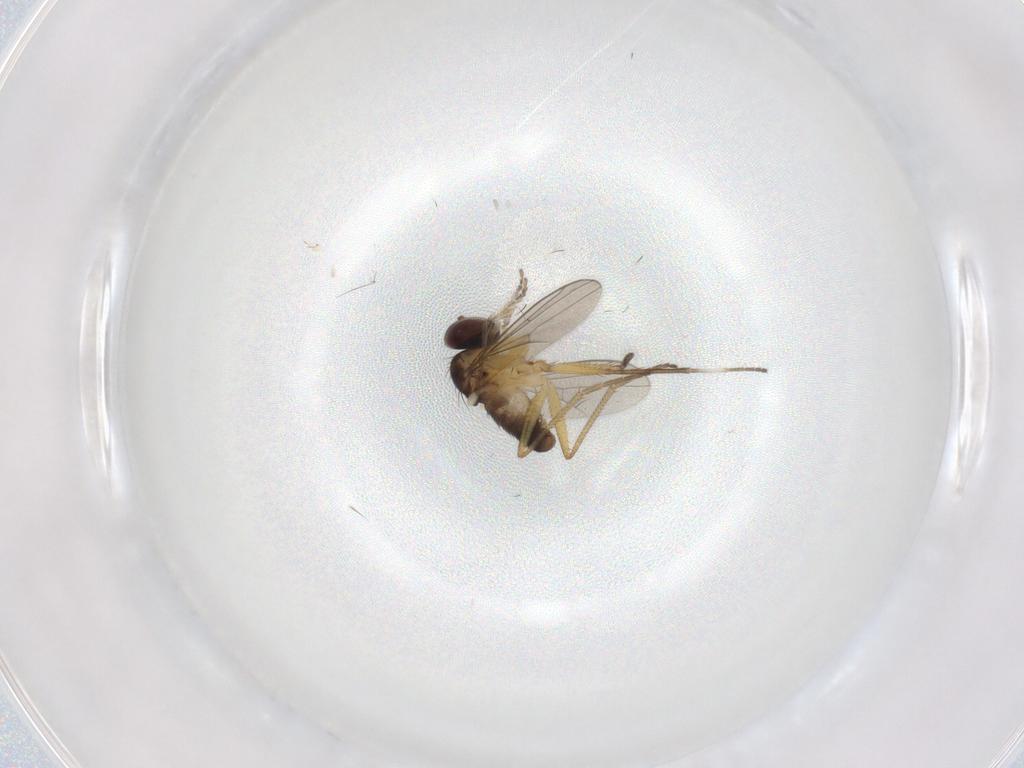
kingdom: Animalia
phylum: Arthropoda
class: Insecta
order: Diptera
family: Dolichopodidae
